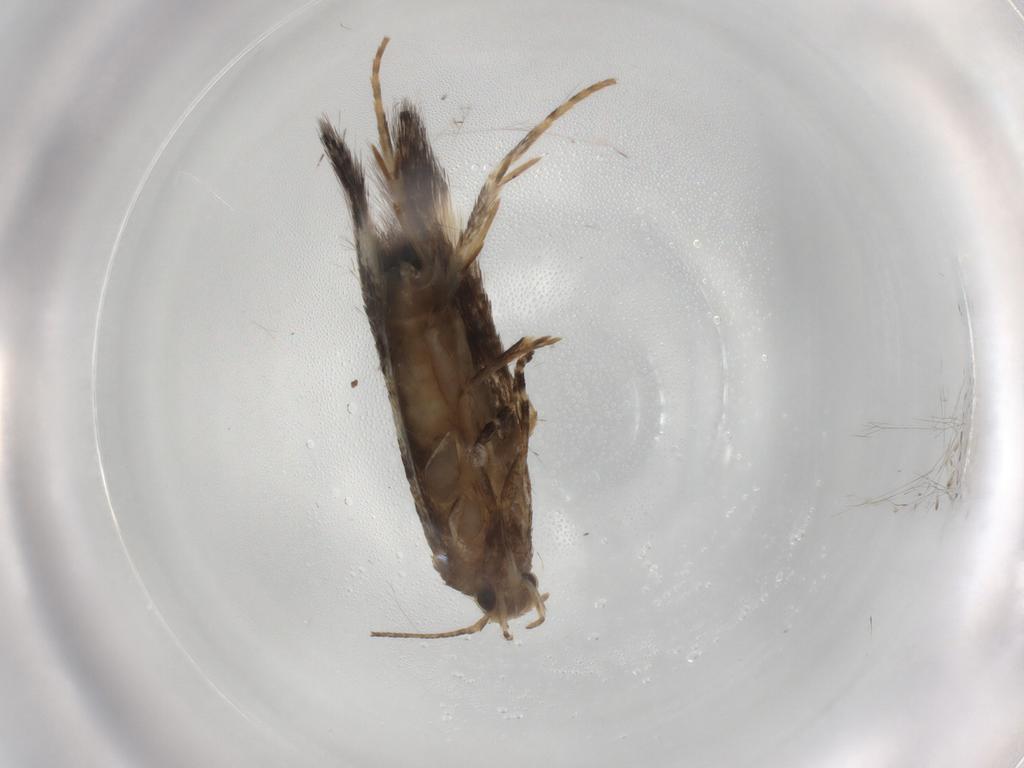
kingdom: Animalia
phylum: Arthropoda
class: Insecta
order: Lepidoptera
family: Elachistidae
